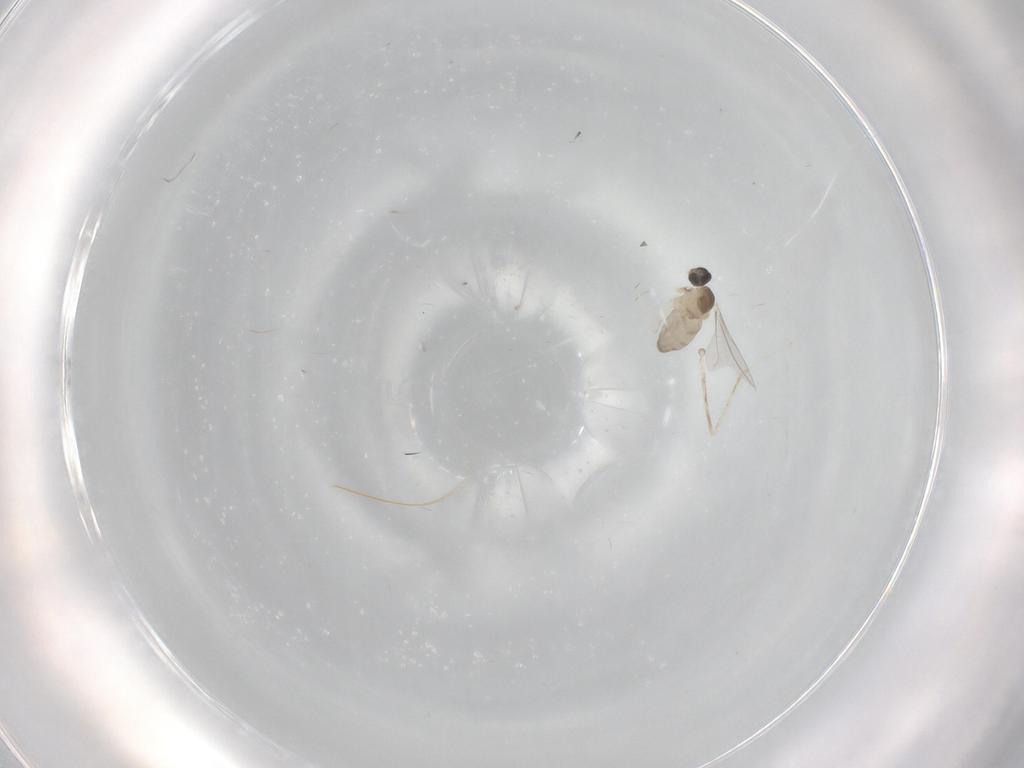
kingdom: Animalia
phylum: Arthropoda
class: Insecta
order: Diptera
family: Cecidomyiidae
